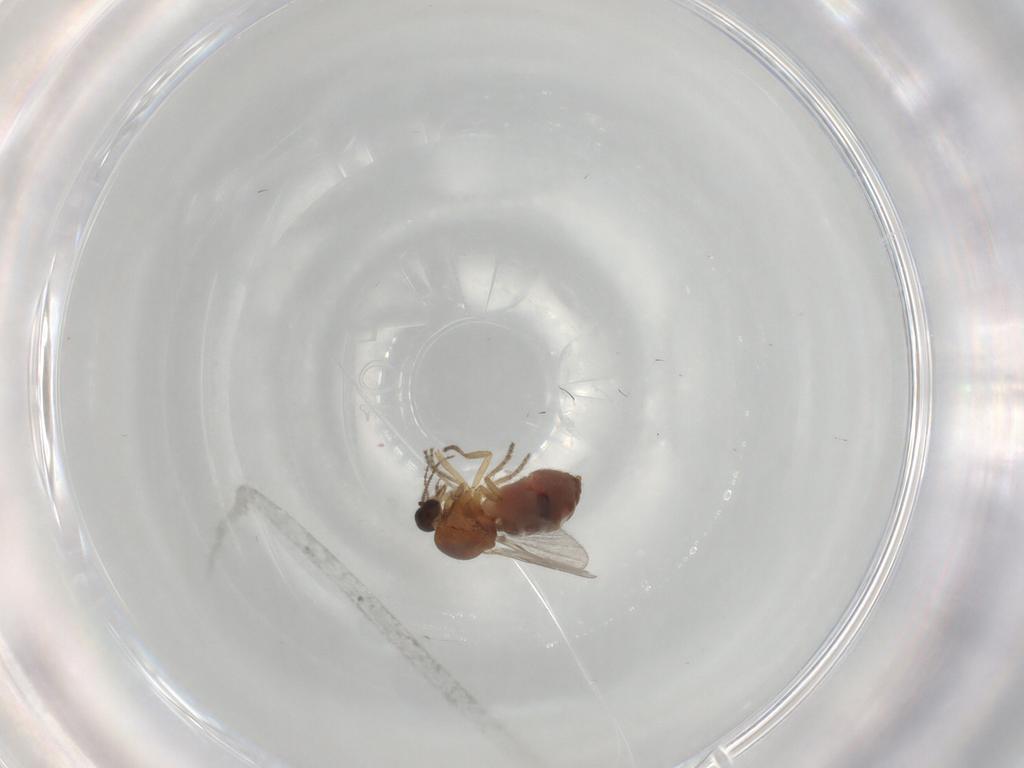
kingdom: Animalia
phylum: Arthropoda
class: Insecta
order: Diptera
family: Ceratopogonidae
